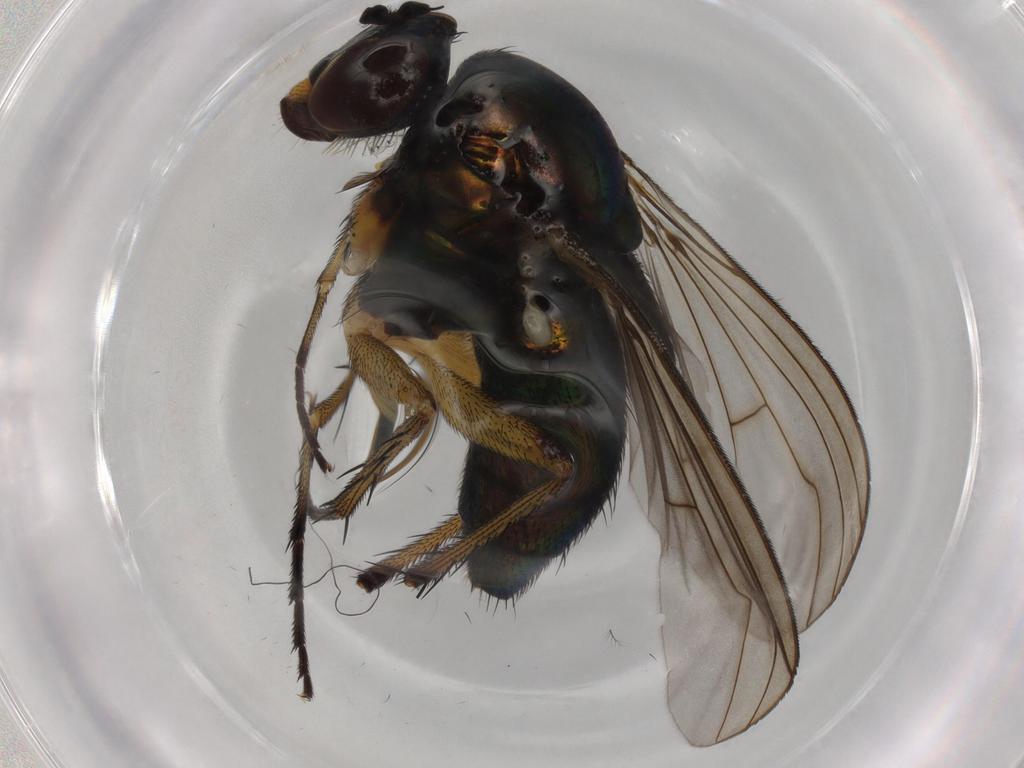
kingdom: Animalia
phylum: Arthropoda
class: Insecta
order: Diptera
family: Dolichopodidae
